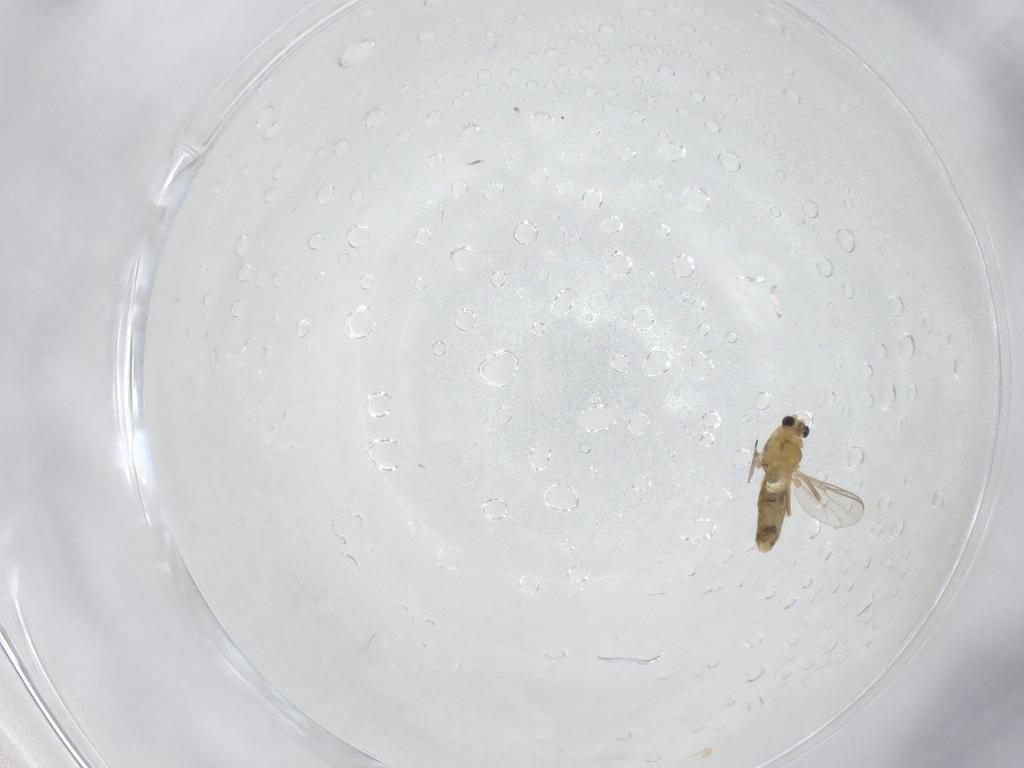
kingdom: Animalia
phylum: Arthropoda
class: Insecta
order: Diptera
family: Chironomidae
